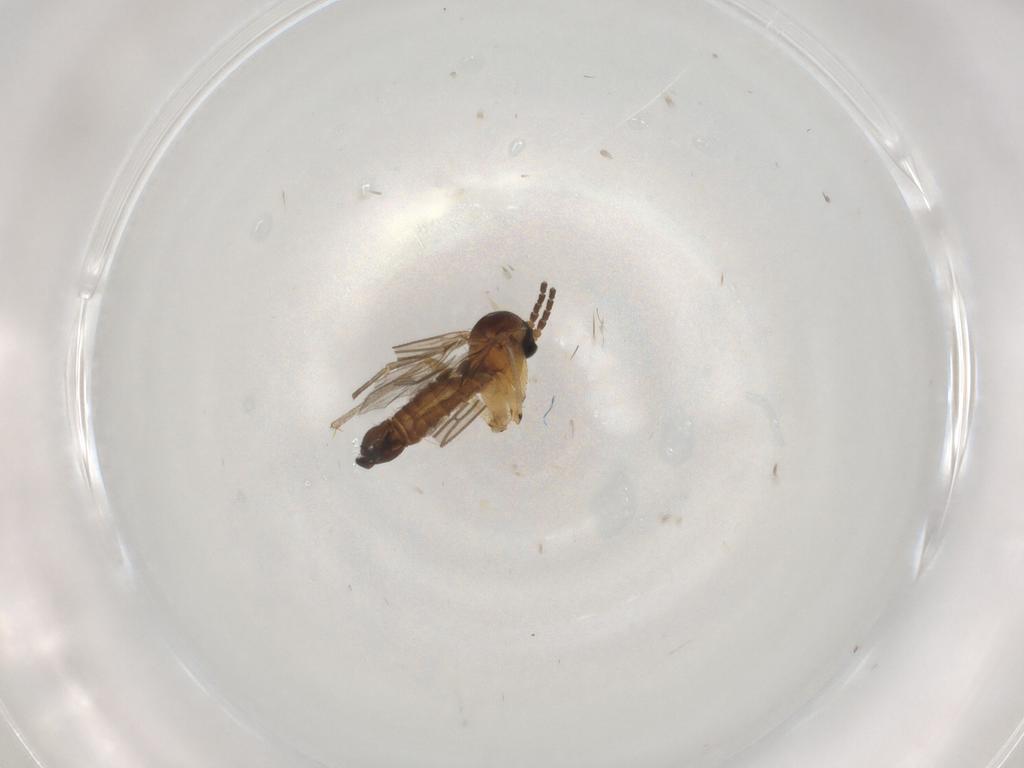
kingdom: Animalia
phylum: Arthropoda
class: Insecta
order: Diptera
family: Sciaridae
